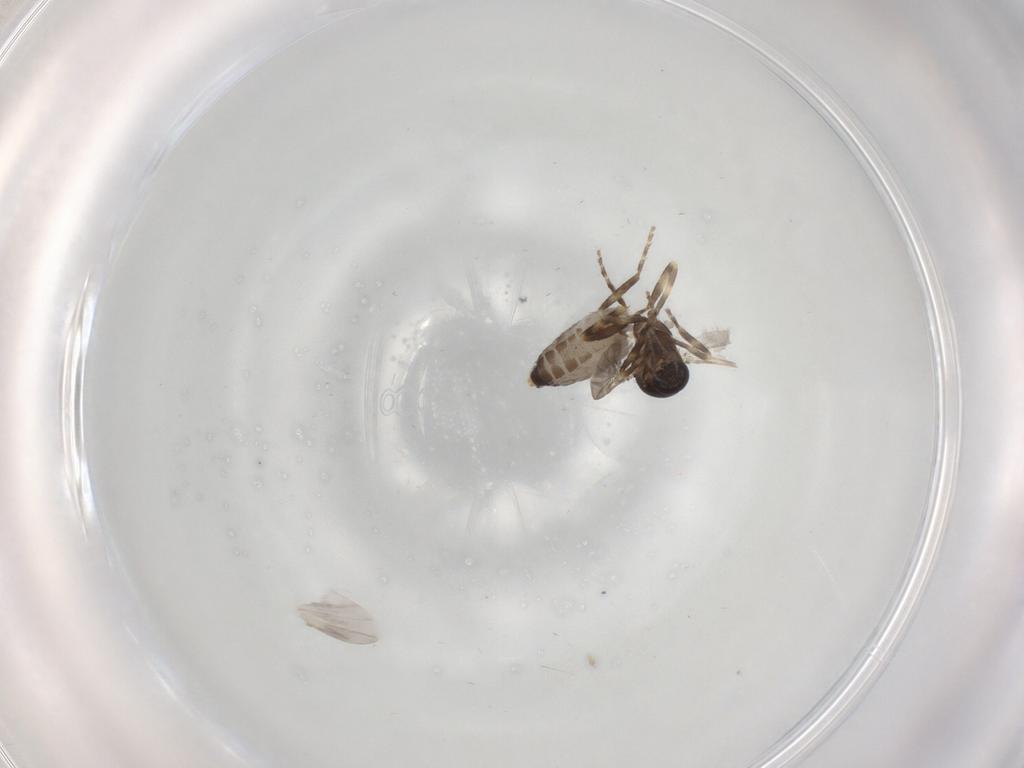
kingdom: Animalia
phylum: Arthropoda
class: Insecta
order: Diptera
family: Ceratopogonidae
